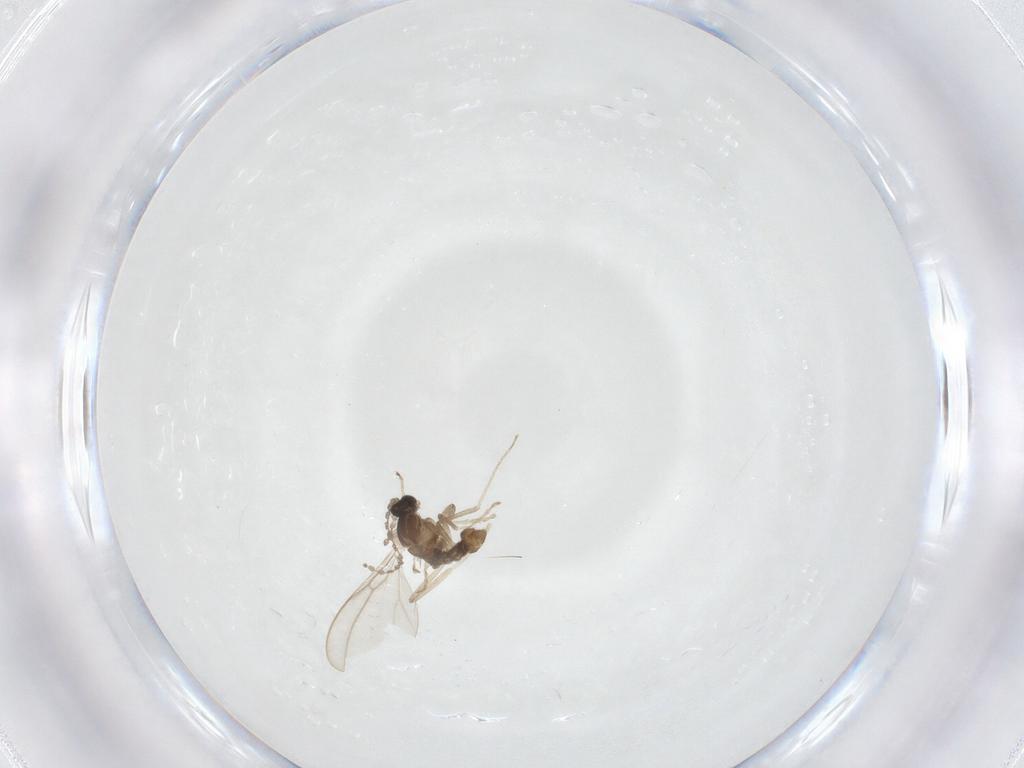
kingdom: Animalia
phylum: Arthropoda
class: Insecta
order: Diptera
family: Cecidomyiidae
